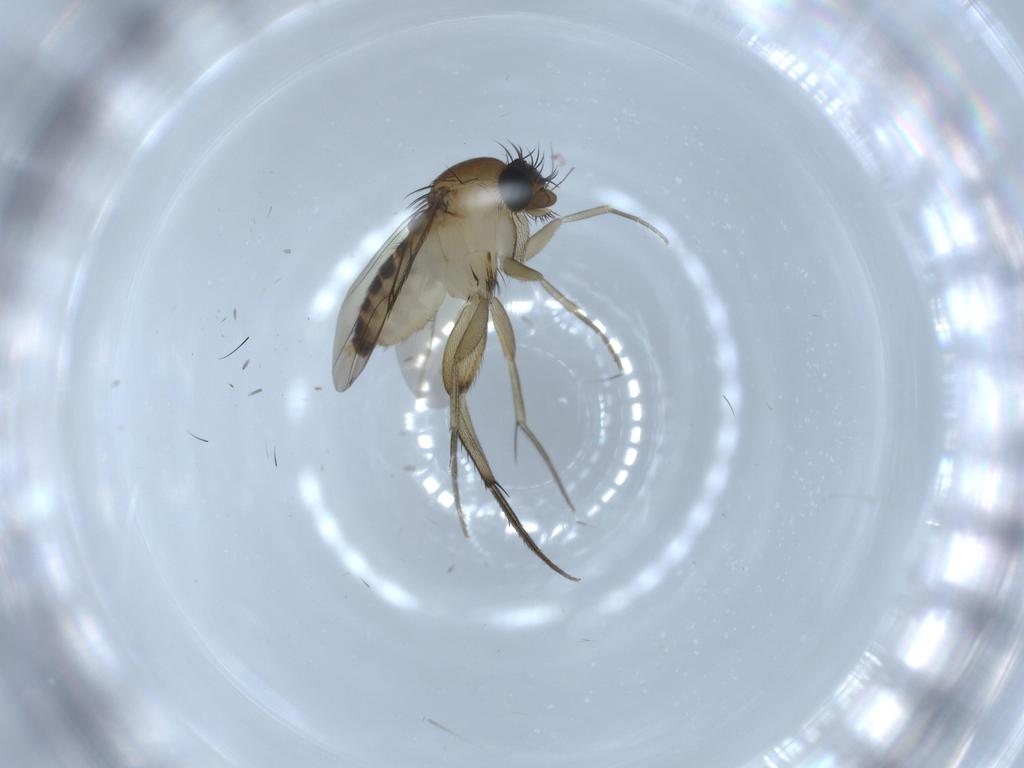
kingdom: Animalia
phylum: Arthropoda
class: Insecta
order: Diptera
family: Phoridae
